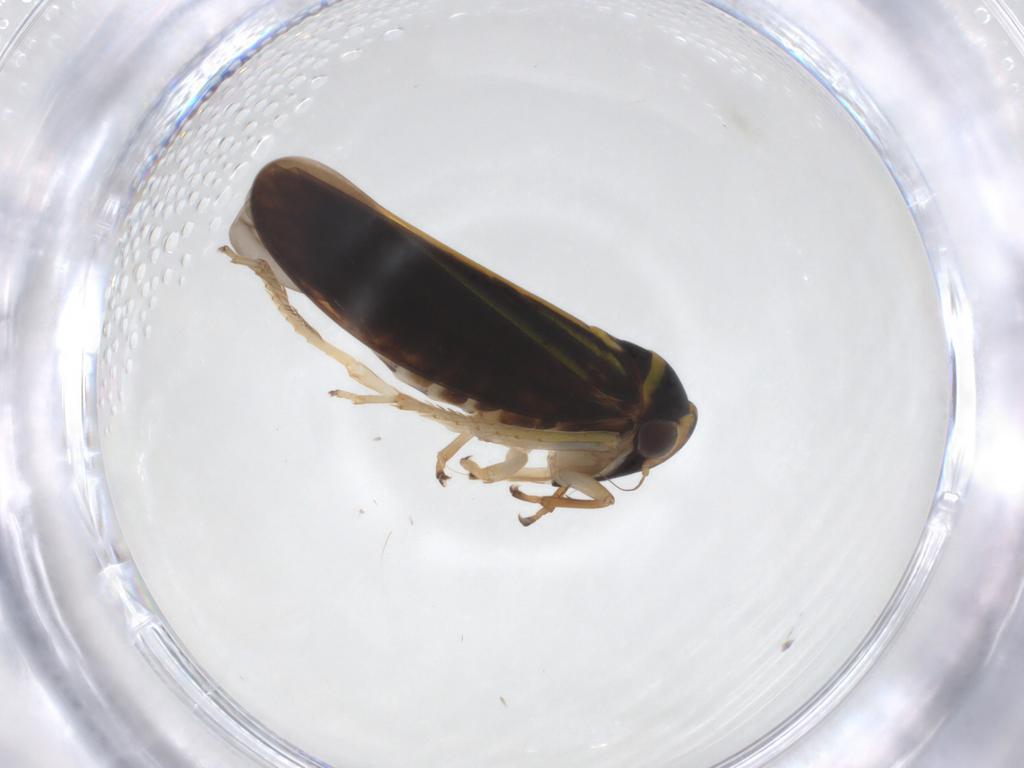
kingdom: Animalia
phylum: Arthropoda
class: Insecta
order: Hemiptera
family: Cicadellidae
